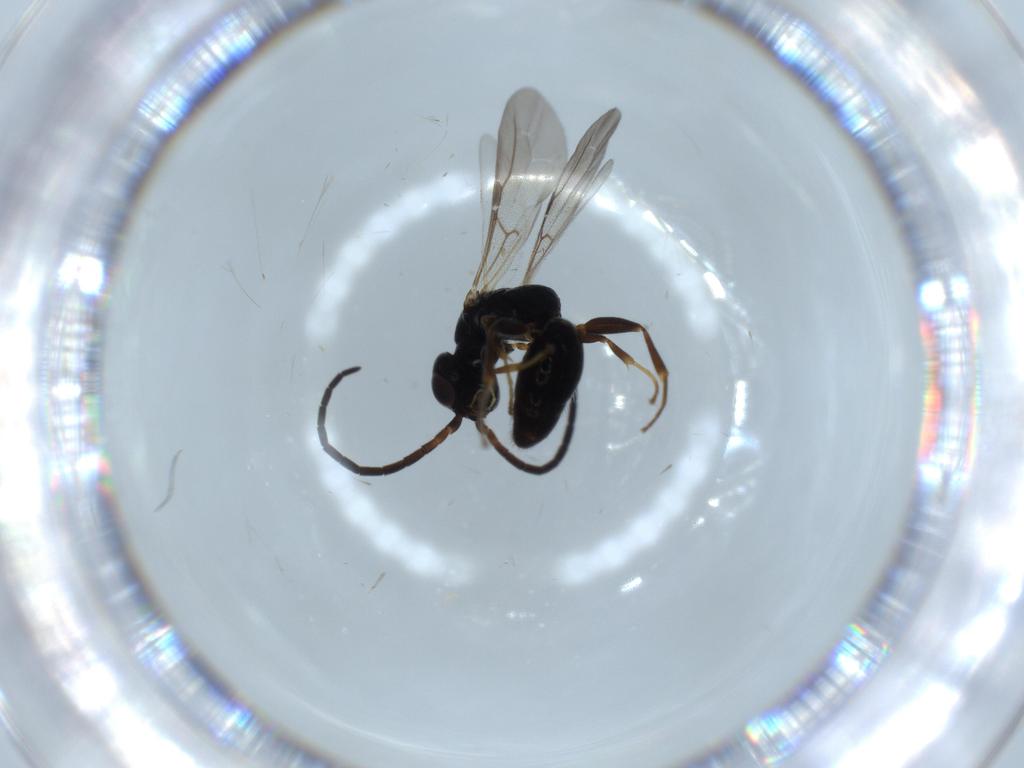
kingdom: Animalia
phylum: Arthropoda
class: Insecta
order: Hymenoptera
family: Bethylidae
